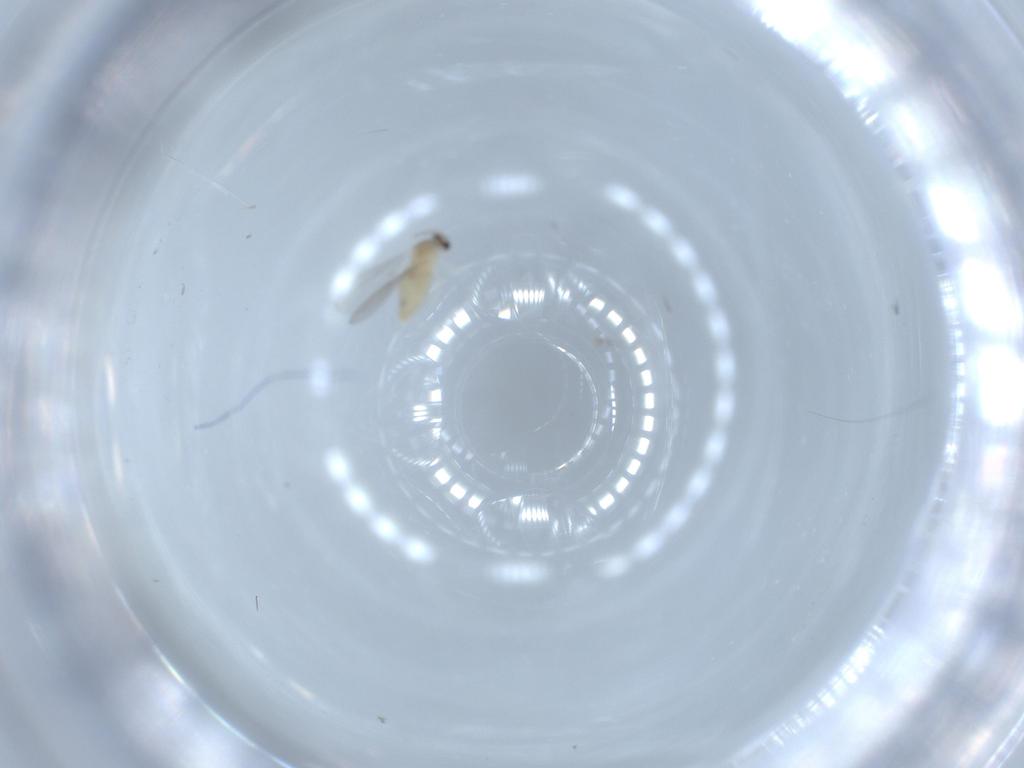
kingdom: Animalia
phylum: Arthropoda
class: Insecta
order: Diptera
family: Cecidomyiidae
